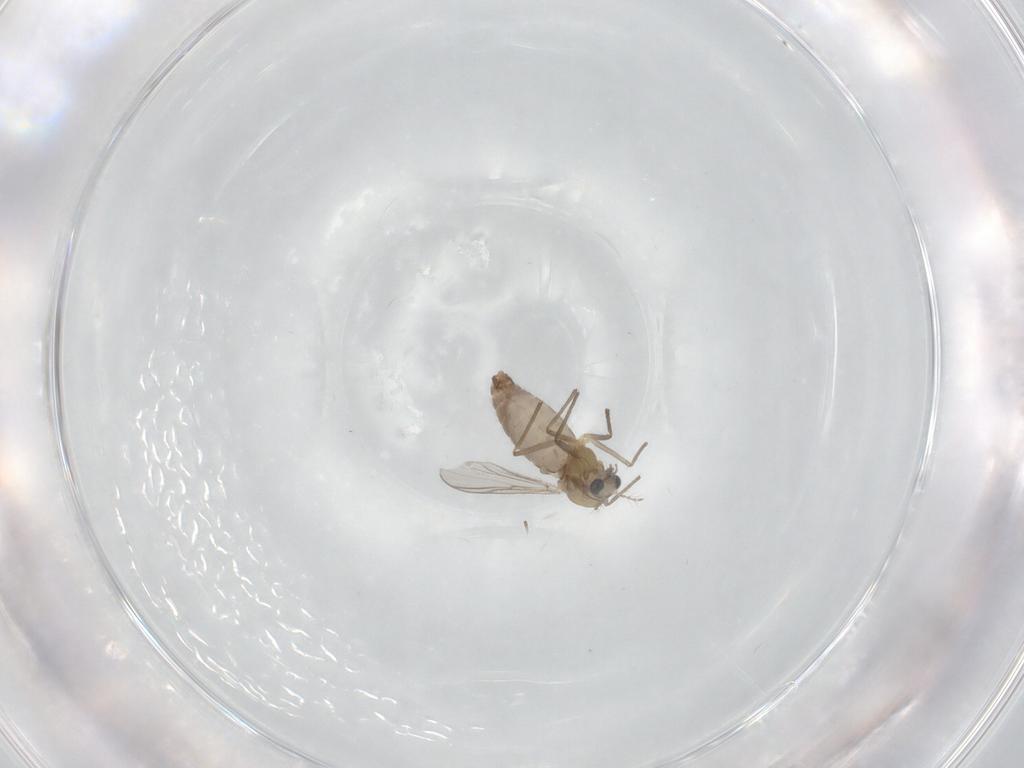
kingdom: Animalia
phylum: Arthropoda
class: Insecta
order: Diptera
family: Chironomidae
